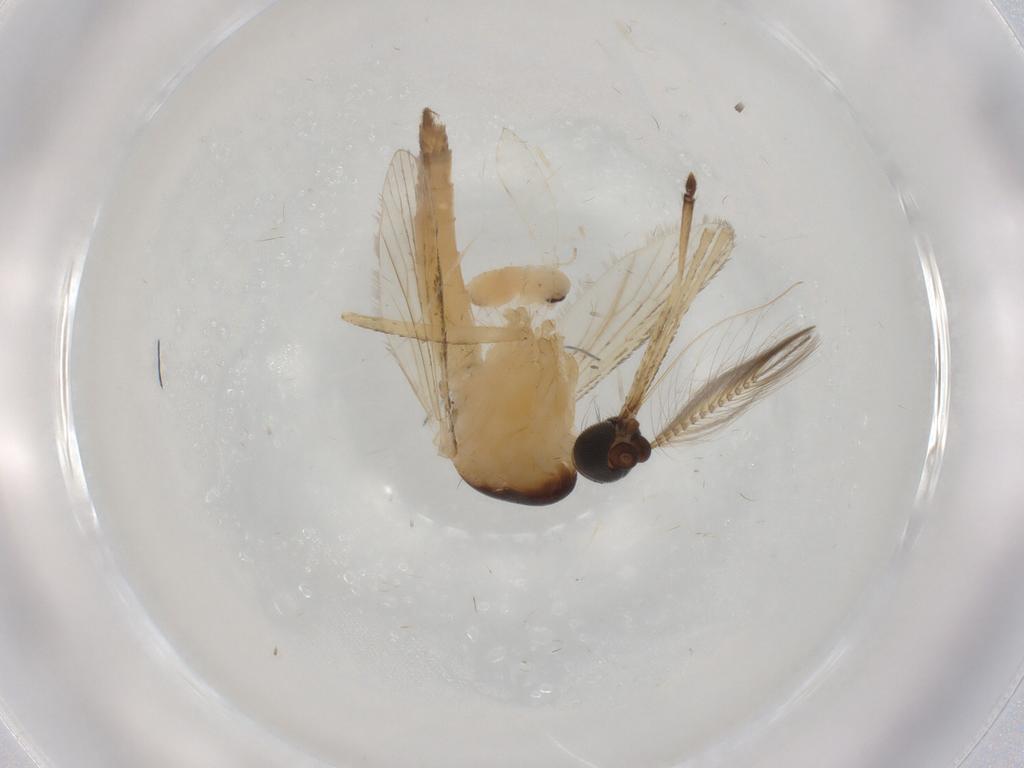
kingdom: Animalia
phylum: Arthropoda
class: Insecta
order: Diptera
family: Sciaridae
